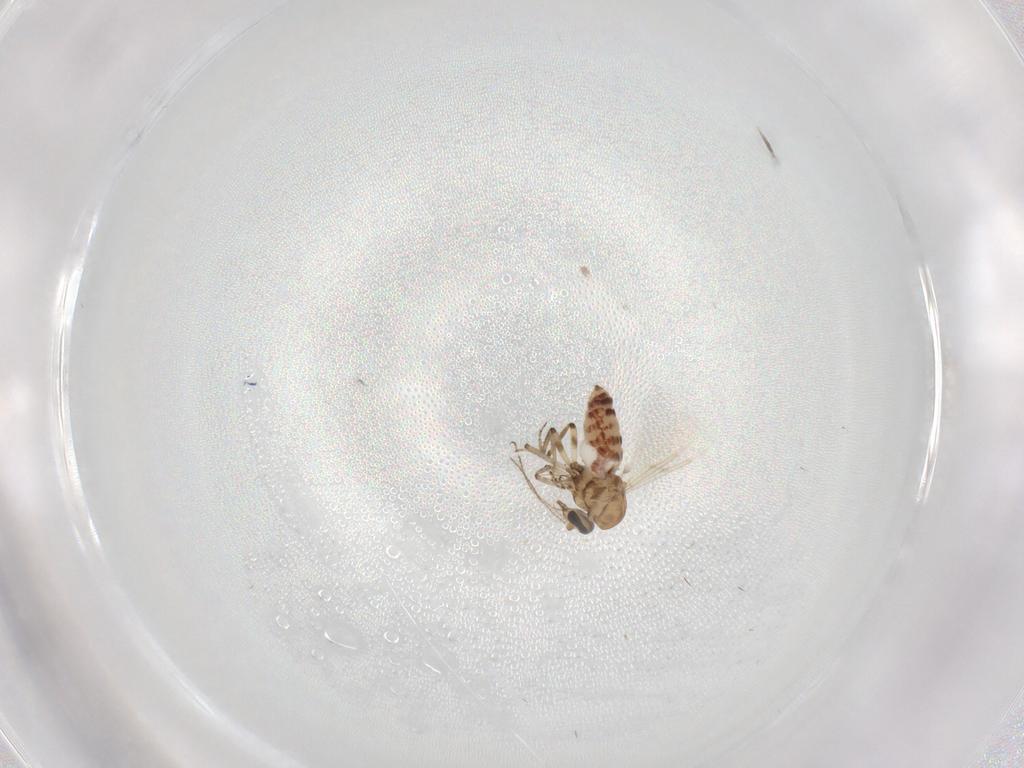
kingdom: Animalia
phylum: Arthropoda
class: Insecta
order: Diptera
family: Ceratopogonidae
